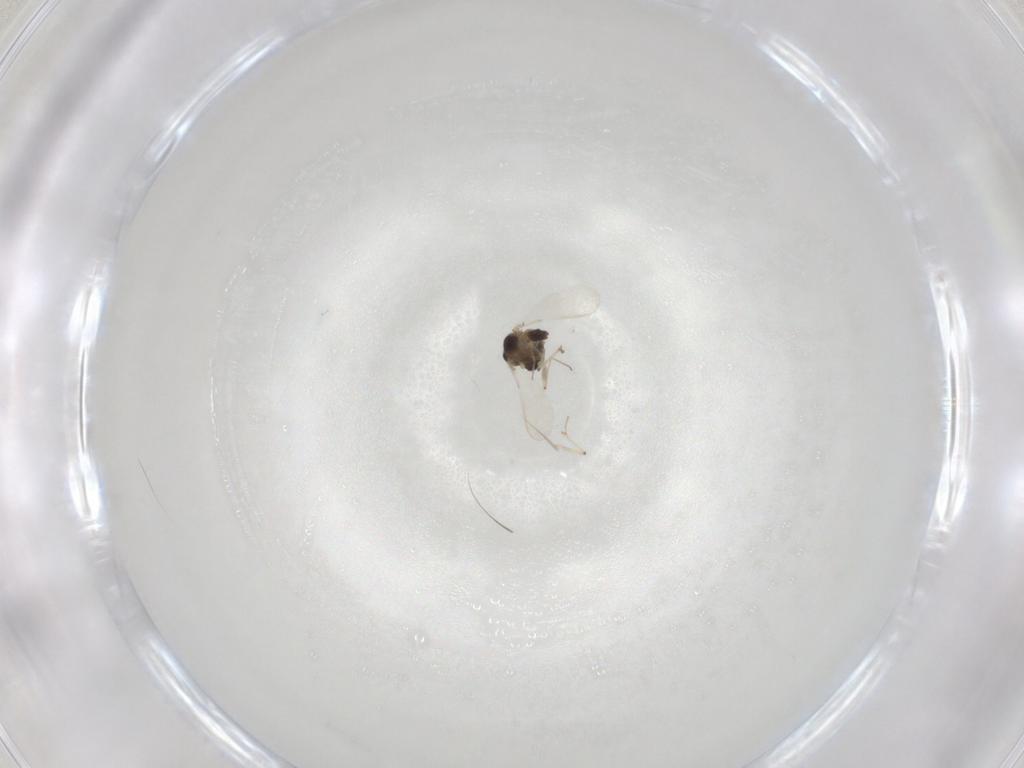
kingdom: Animalia
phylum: Arthropoda
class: Insecta
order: Diptera
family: Chironomidae
